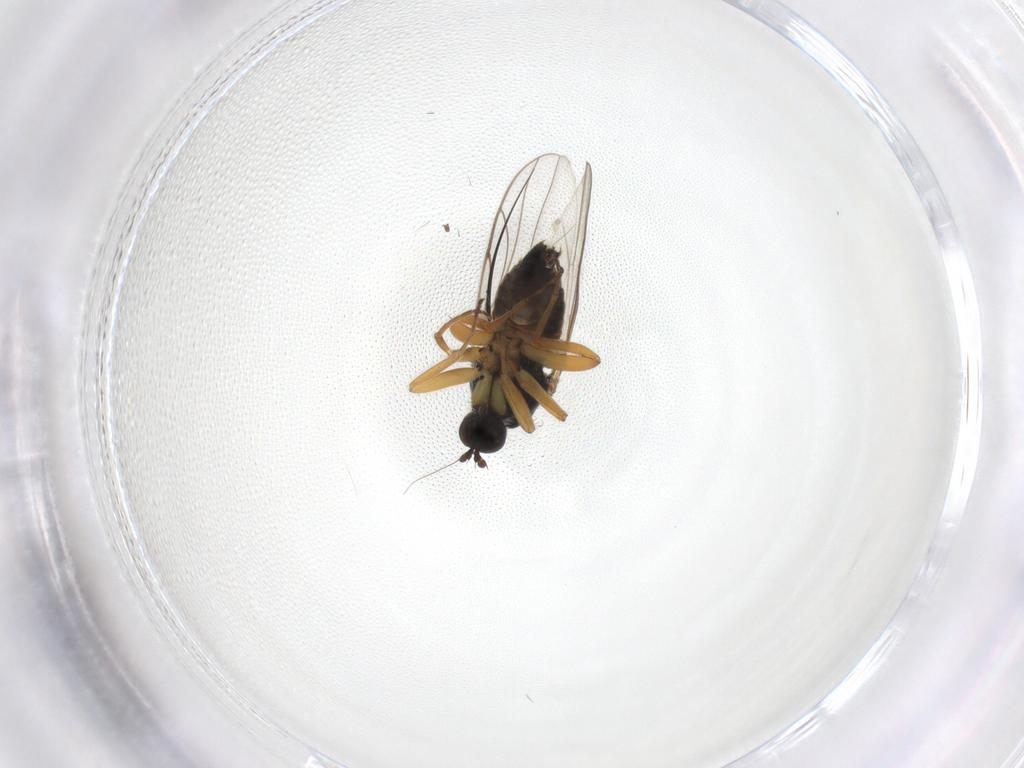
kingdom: Animalia
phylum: Arthropoda
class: Insecta
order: Diptera
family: Hybotidae
